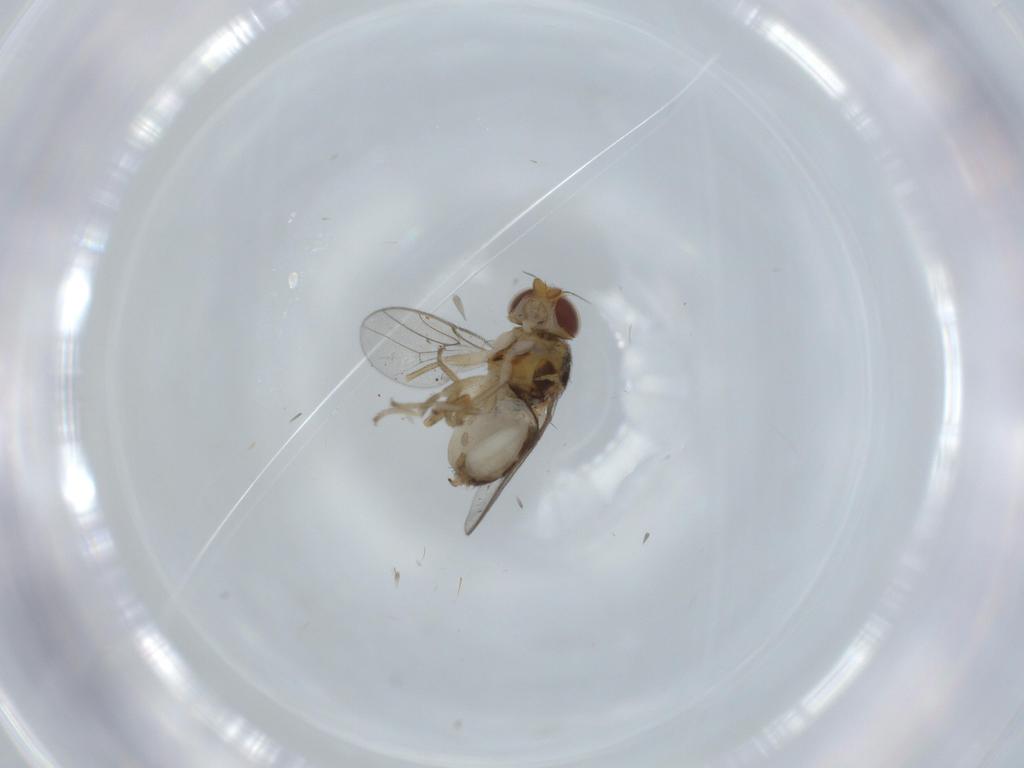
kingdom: Animalia
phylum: Arthropoda
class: Insecta
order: Diptera
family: Chloropidae
